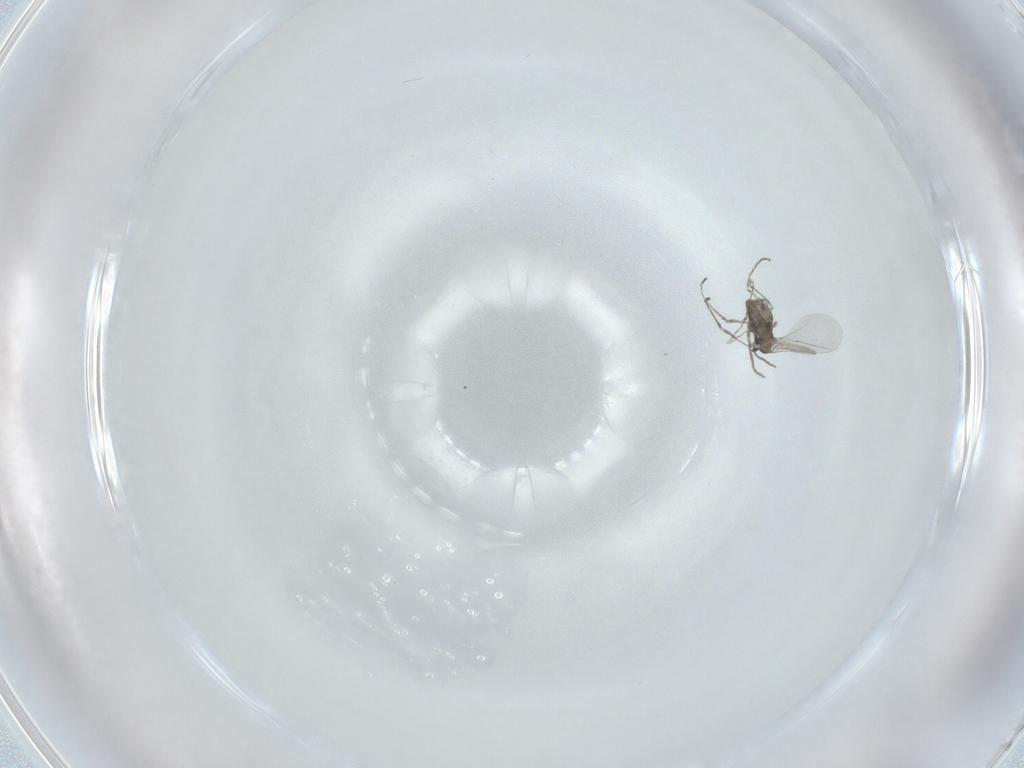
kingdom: Animalia
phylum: Arthropoda
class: Insecta
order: Diptera
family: Cecidomyiidae
